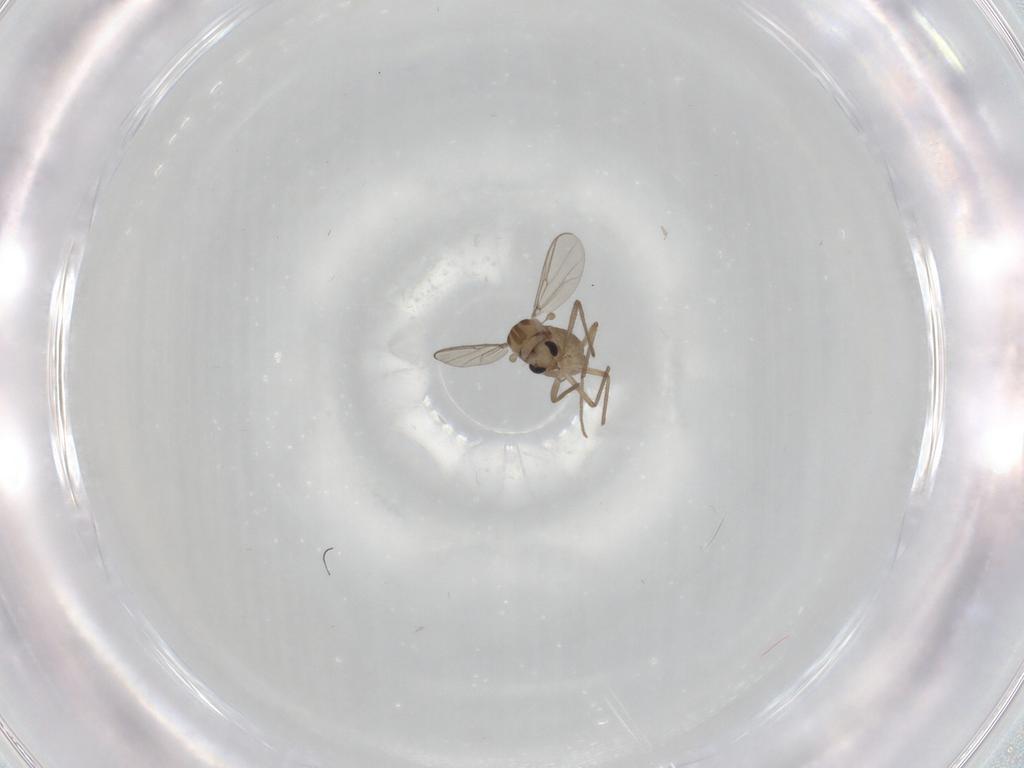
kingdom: Animalia
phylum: Arthropoda
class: Insecta
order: Diptera
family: Chironomidae
